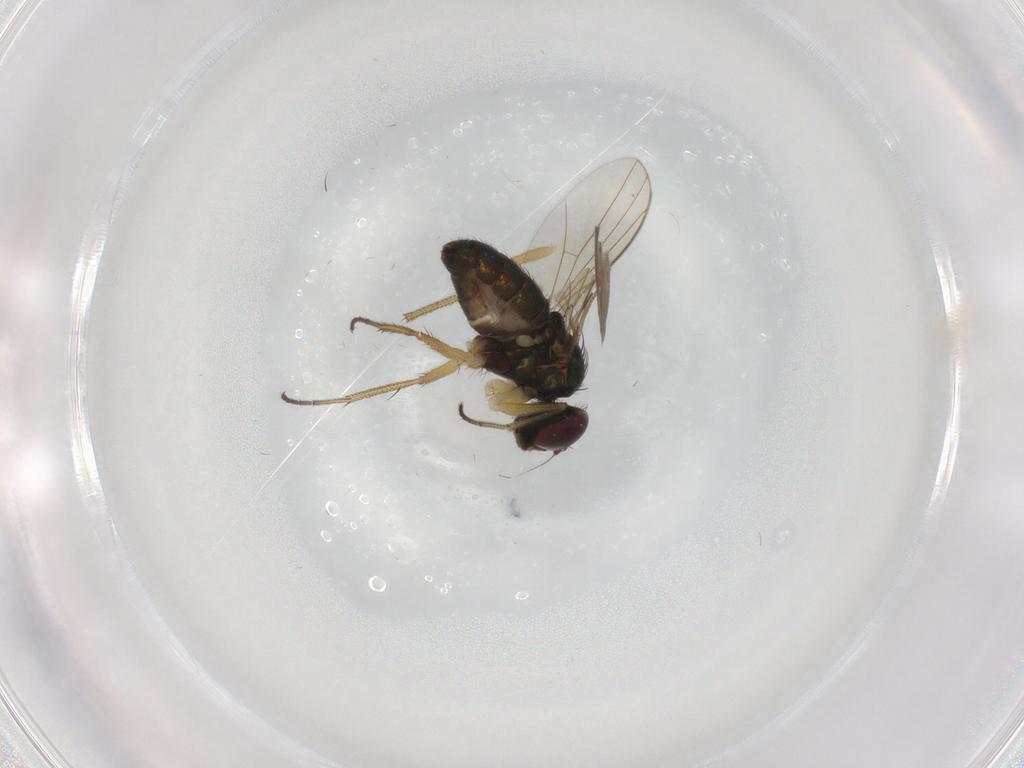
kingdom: Animalia
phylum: Arthropoda
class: Insecta
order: Diptera
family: Dolichopodidae
